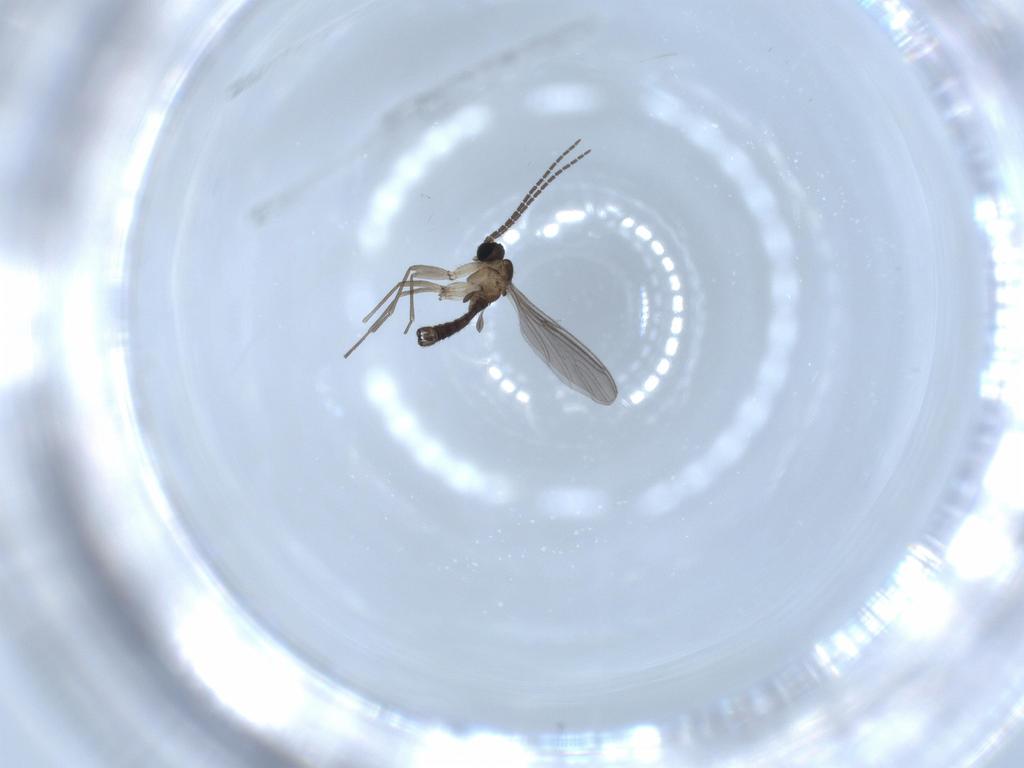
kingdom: Animalia
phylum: Arthropoda
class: Insecta
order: Diptera
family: Sciaridae
